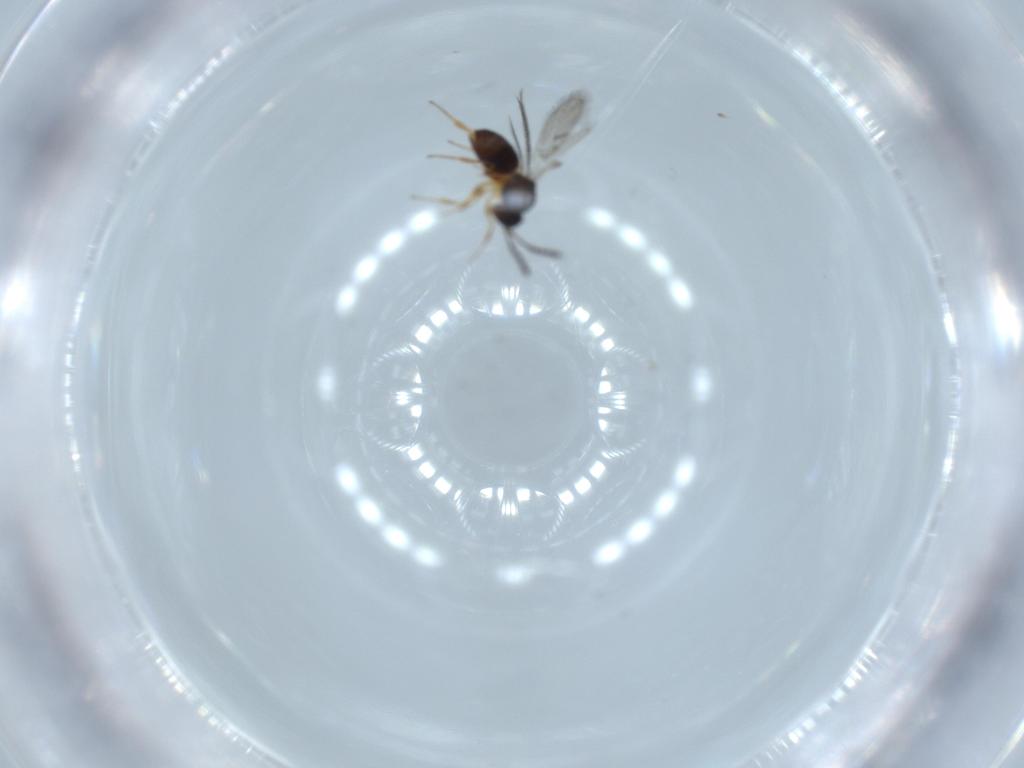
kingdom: Animalia
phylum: Arthropoda
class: Insecta
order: Hymenoptera
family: Figitidae
